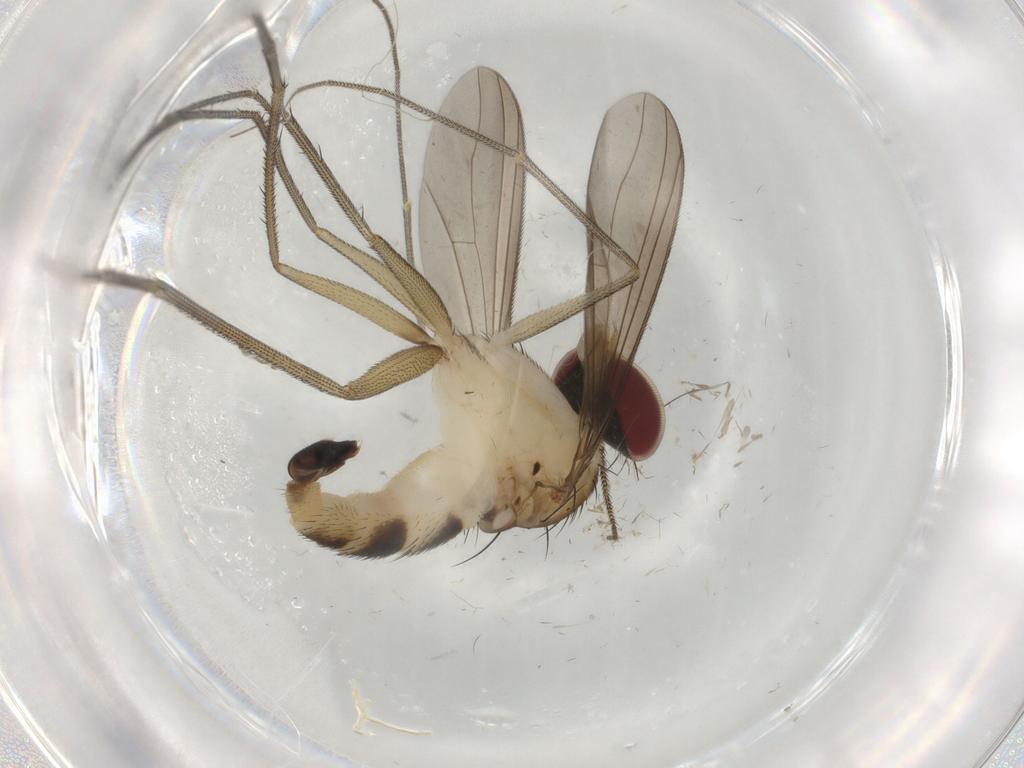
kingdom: Animalia
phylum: Arthropoda
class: Insecta
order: Diptera
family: Dolichopodidae
